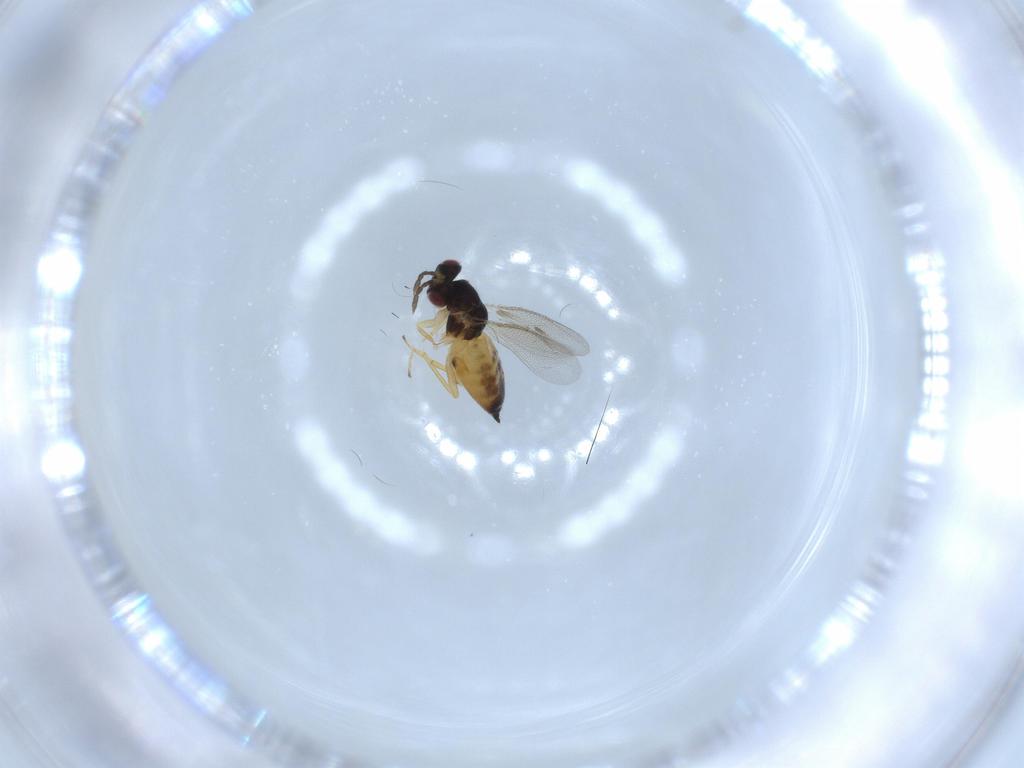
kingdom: Animalia
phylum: Arthropoda
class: Insecta
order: Hymenoptera
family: Eulophidae
